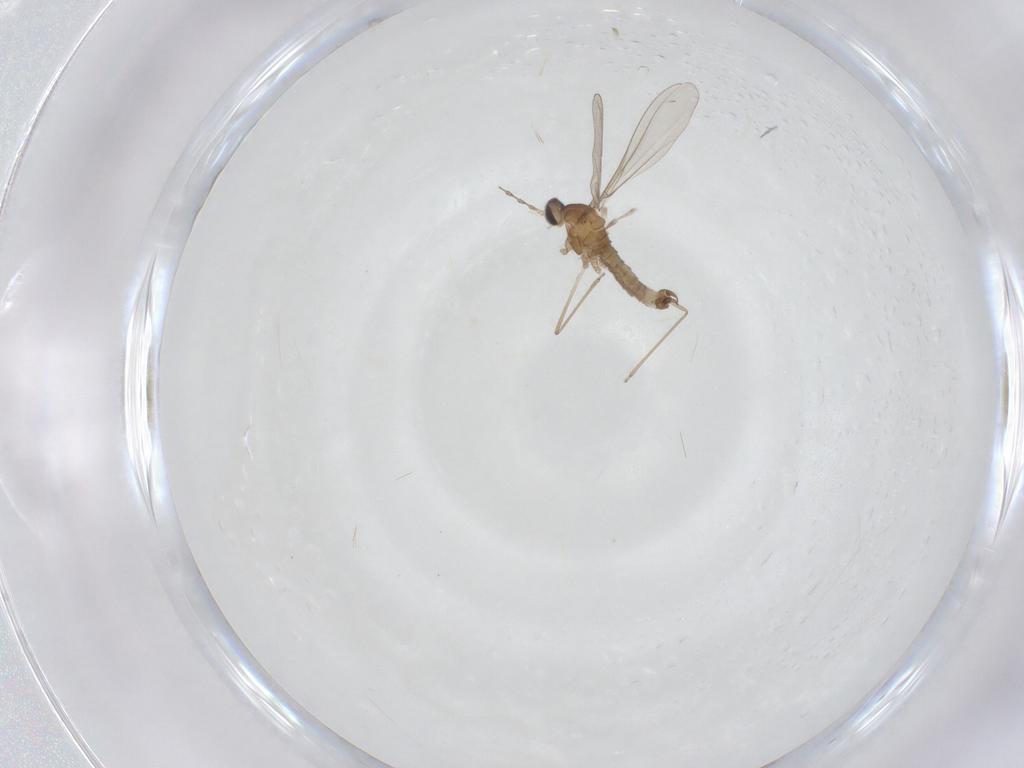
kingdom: Animalia
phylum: Arthropoda
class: Insecta
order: Diptera
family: Cecidomyiidae
